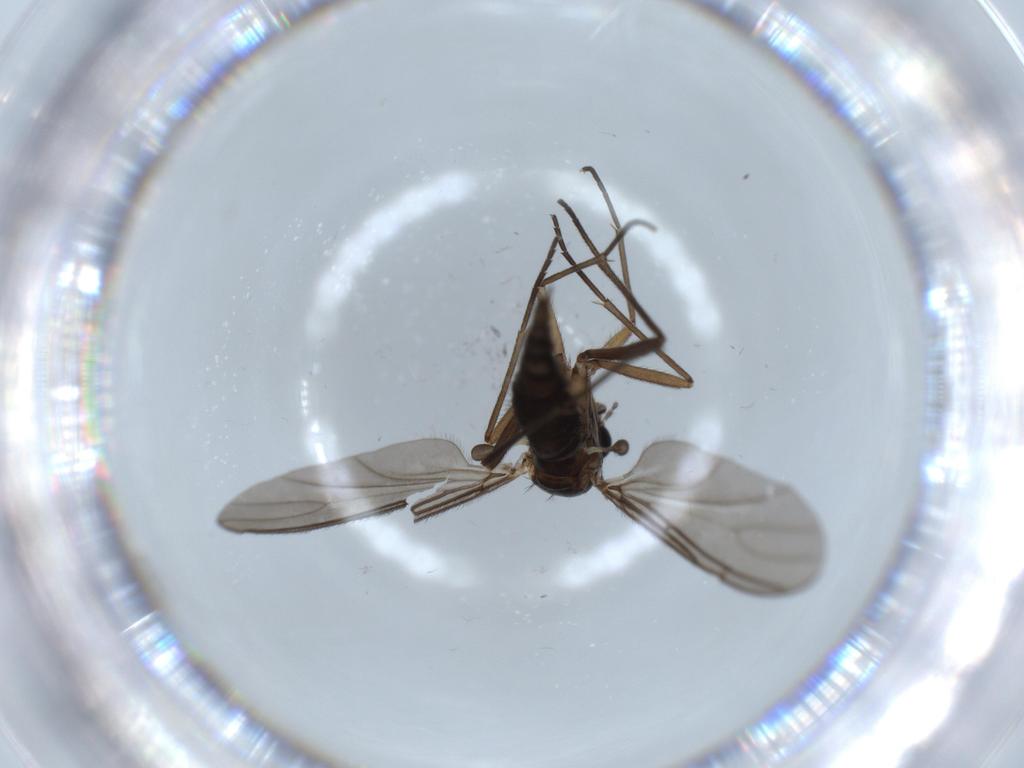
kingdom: Animalia
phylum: Arthropoda
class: Insecta
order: Diptera
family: Sciaridae
